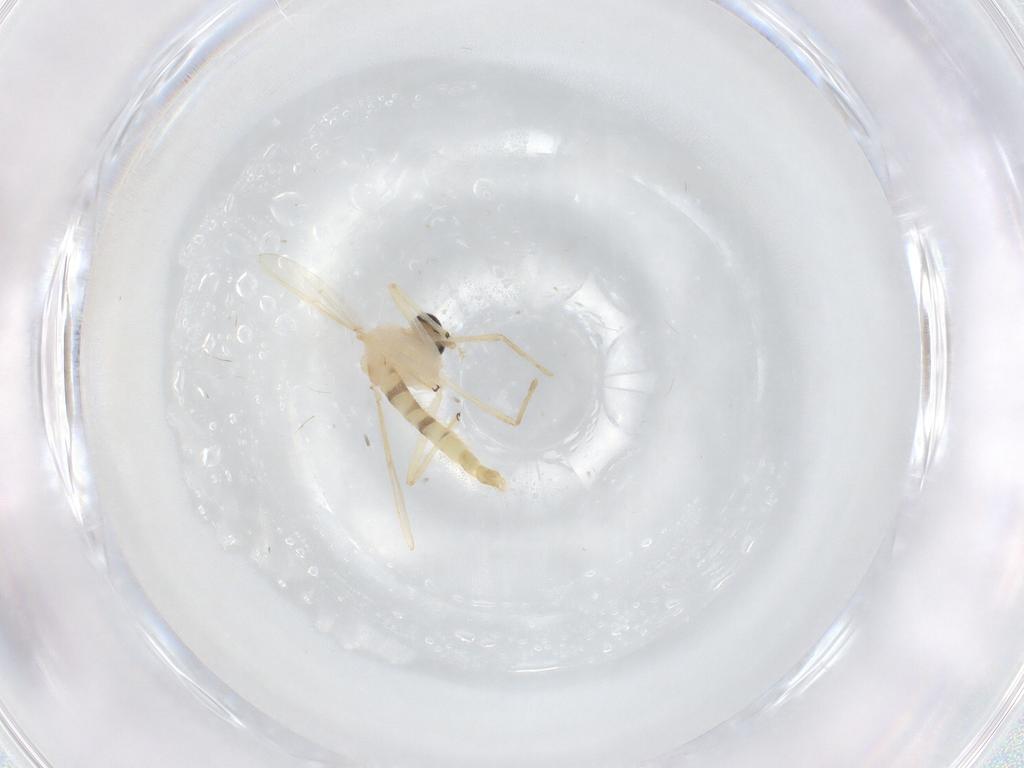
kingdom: Animalia
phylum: Arthropoda
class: Insecta
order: Diptera
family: Chironomidae
